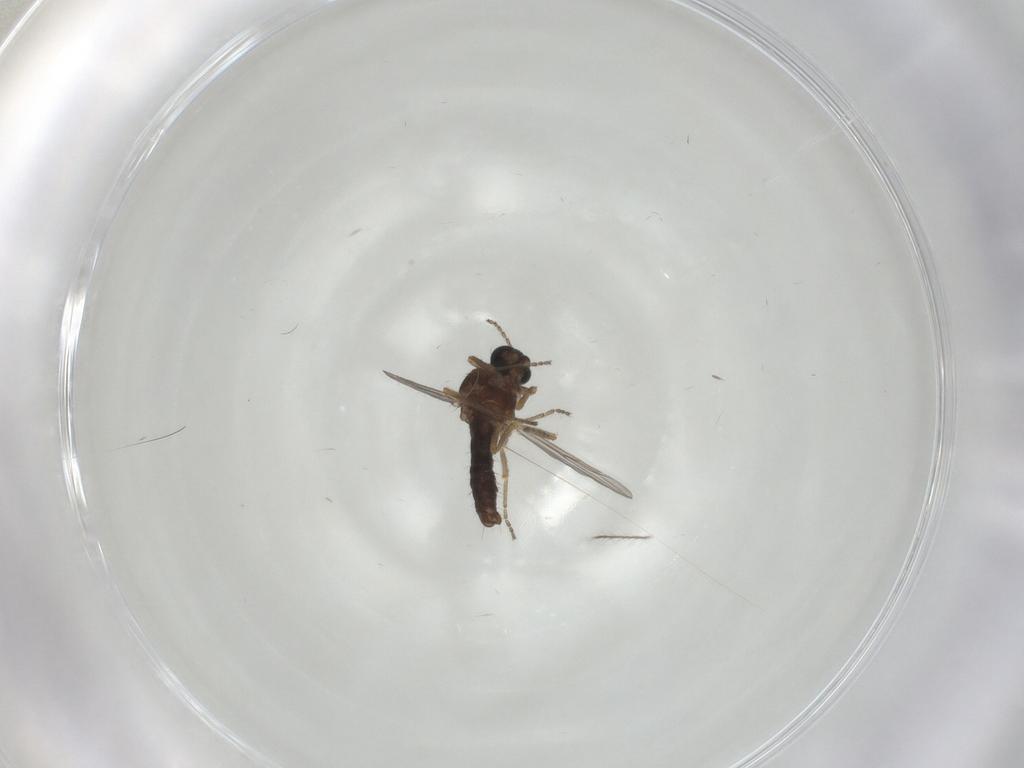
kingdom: Animalia
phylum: Arthropoda
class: Insecta
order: Diptera
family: Ceratopogonidae
